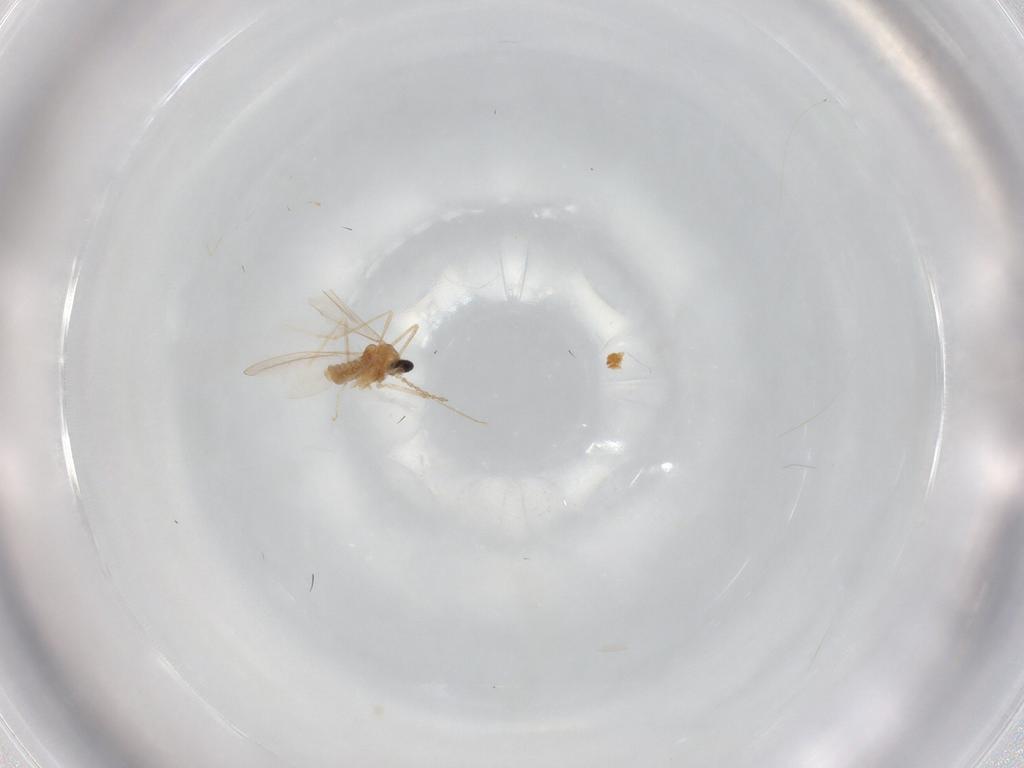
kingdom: Animalia
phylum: Arthropoda
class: Insecta
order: Diptera
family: Cecidomyiidae
